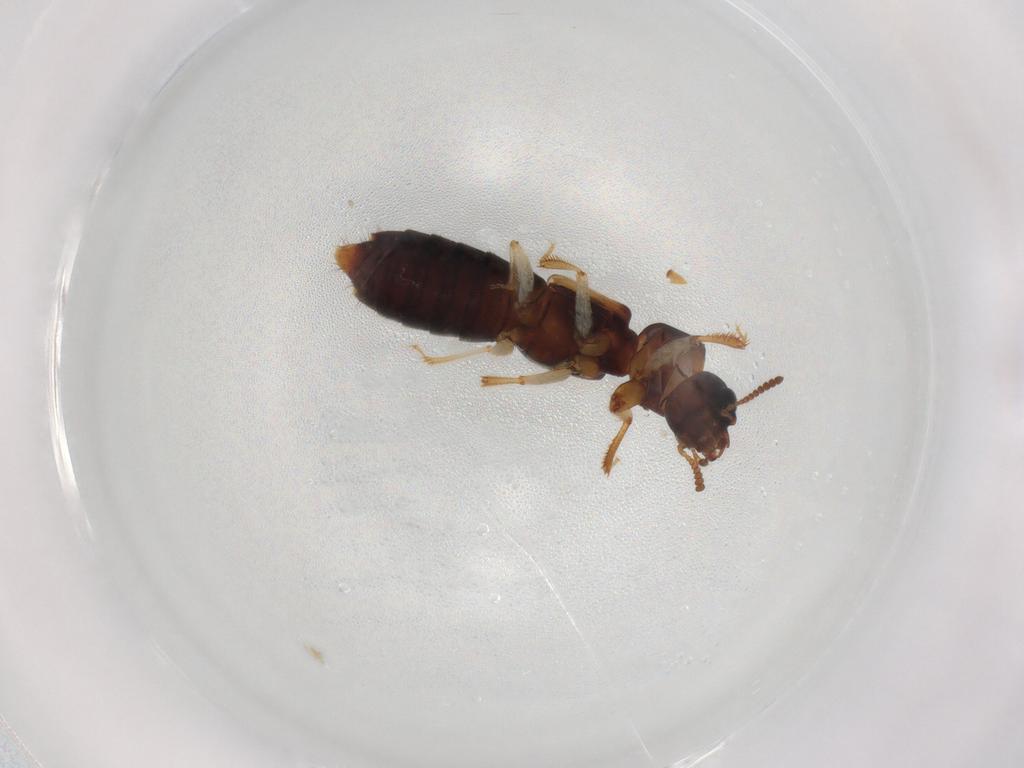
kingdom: Animalia
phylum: Arthropoda
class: Insecta
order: Coleoptera
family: Staphylinidae
